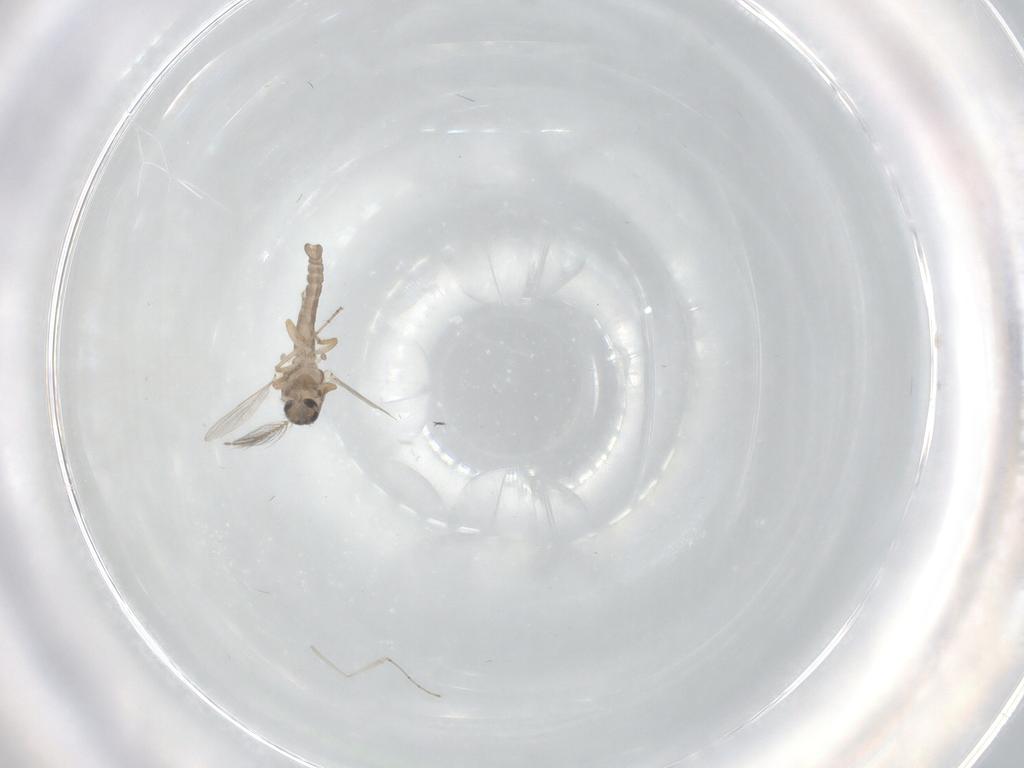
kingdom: Animalia
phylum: Arthropoda
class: Insecta
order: Diptera
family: Ceratopogonidae
